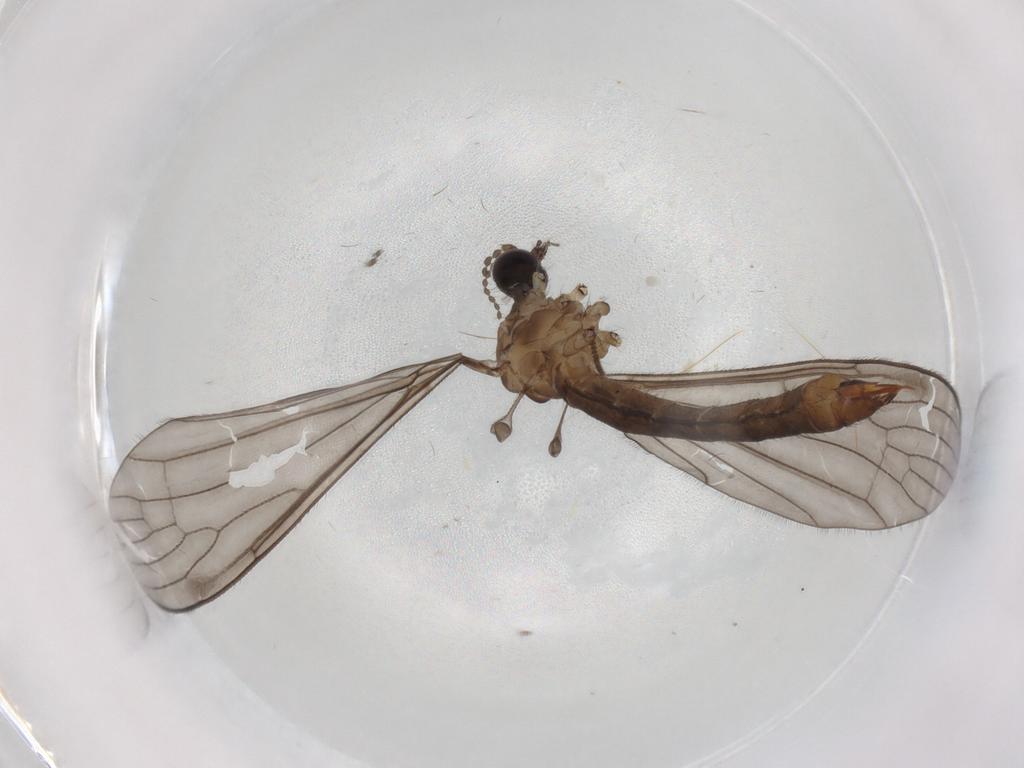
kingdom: Animalia
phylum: Arthropoda
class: Insecta
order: Diptera
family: Limoniidae
